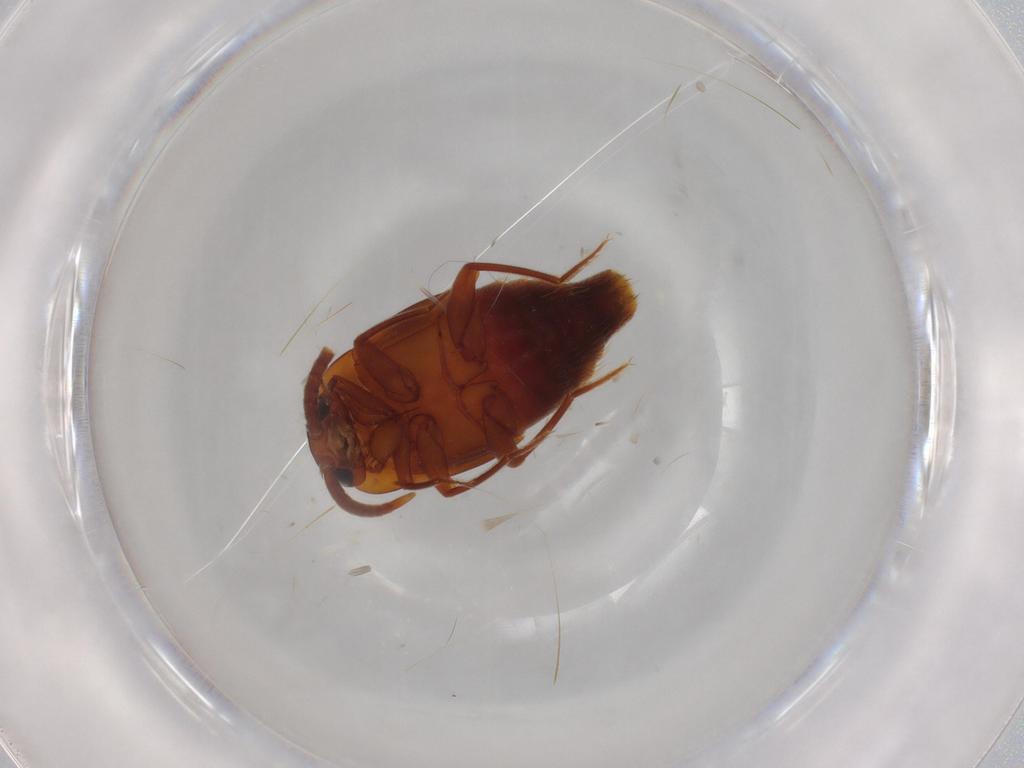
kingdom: Animalia
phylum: Arthropoda
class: Insecta
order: Coleoptera
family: Staphylinidae
